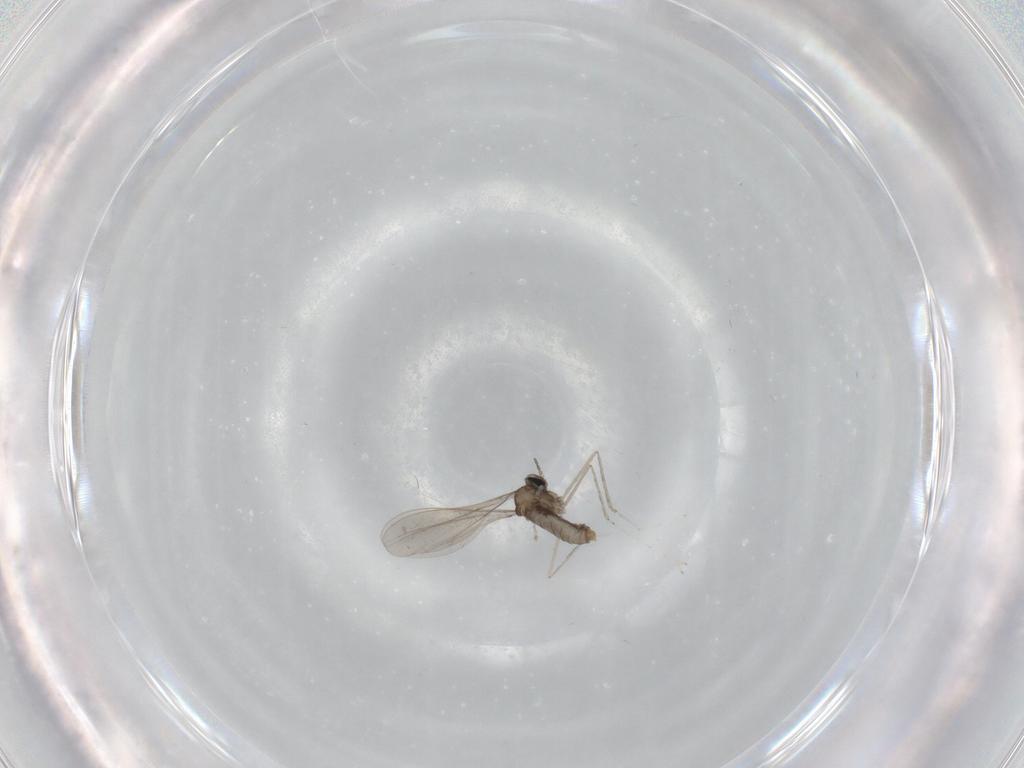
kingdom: Animalia
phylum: Arthropoda
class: Insecta
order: Diptera
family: Cecidomyiidae
